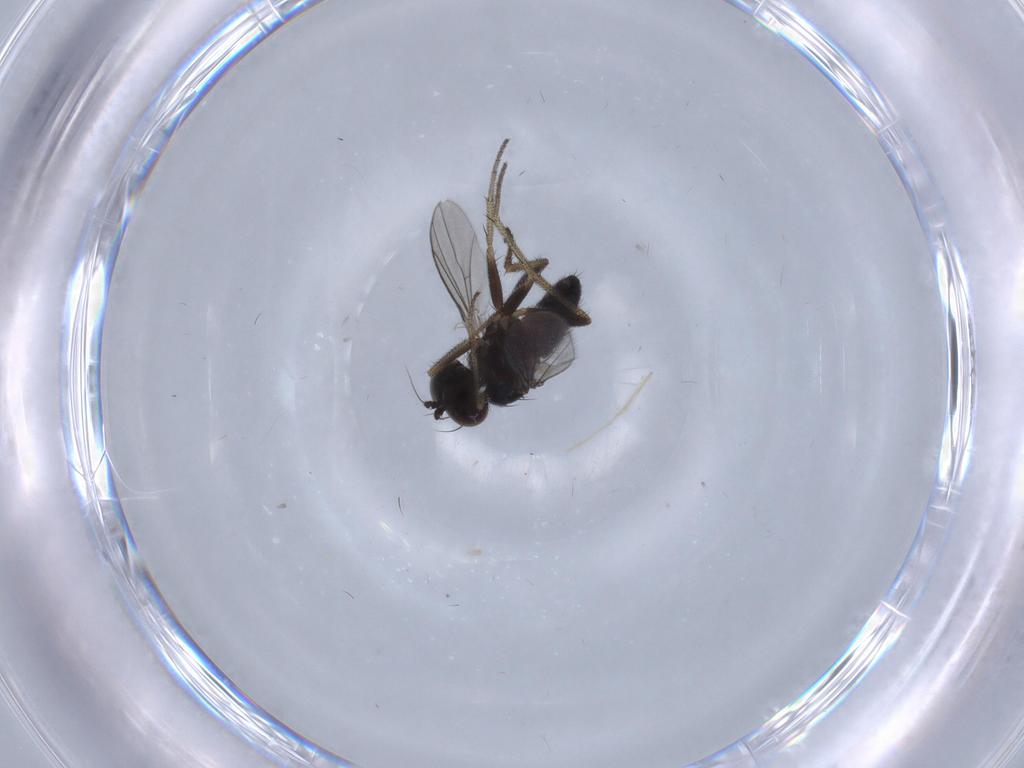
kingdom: Animalia
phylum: Arthropoda
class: Insecta
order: Diptera
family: Dolichopodidae
